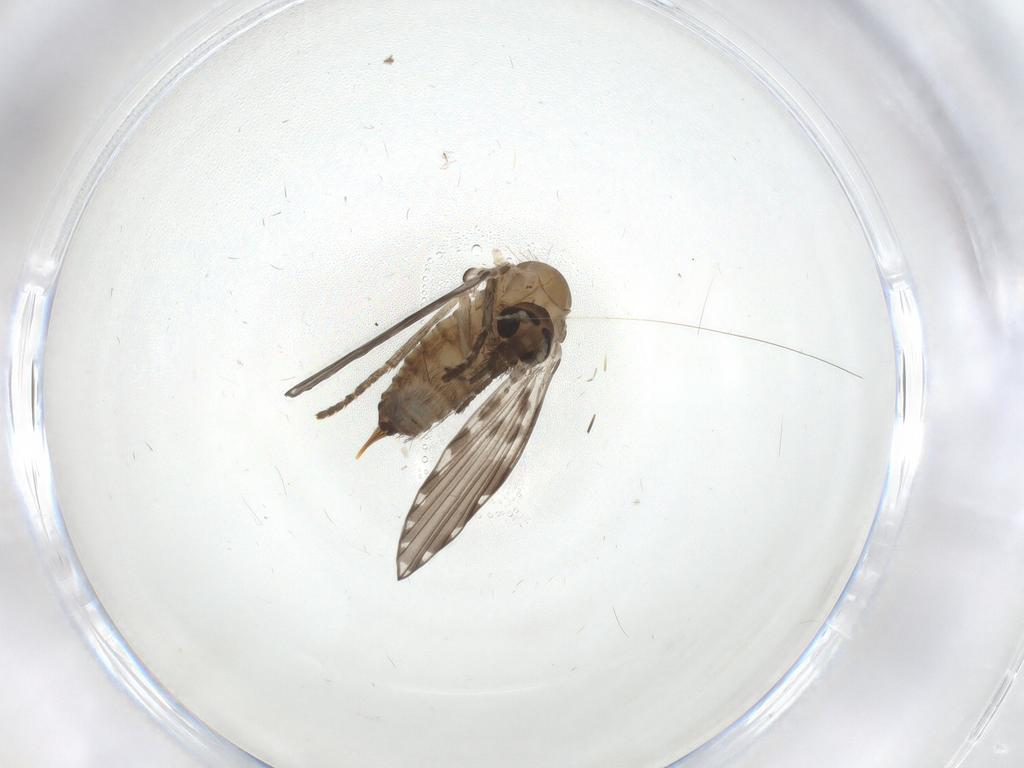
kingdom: Animalia
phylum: Arthropoda
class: Insecta
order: Diptera
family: Psychodidae
